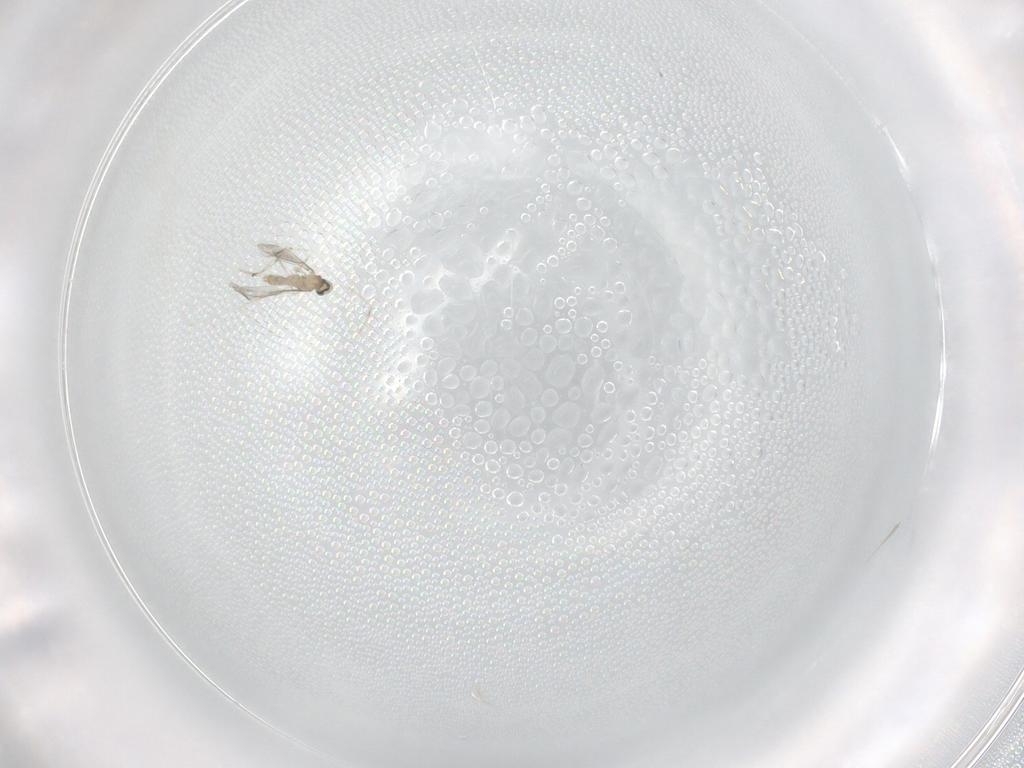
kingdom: Animalia
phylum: Arthropoda
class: Insecta
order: Diptera
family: Cecidomyiidae
